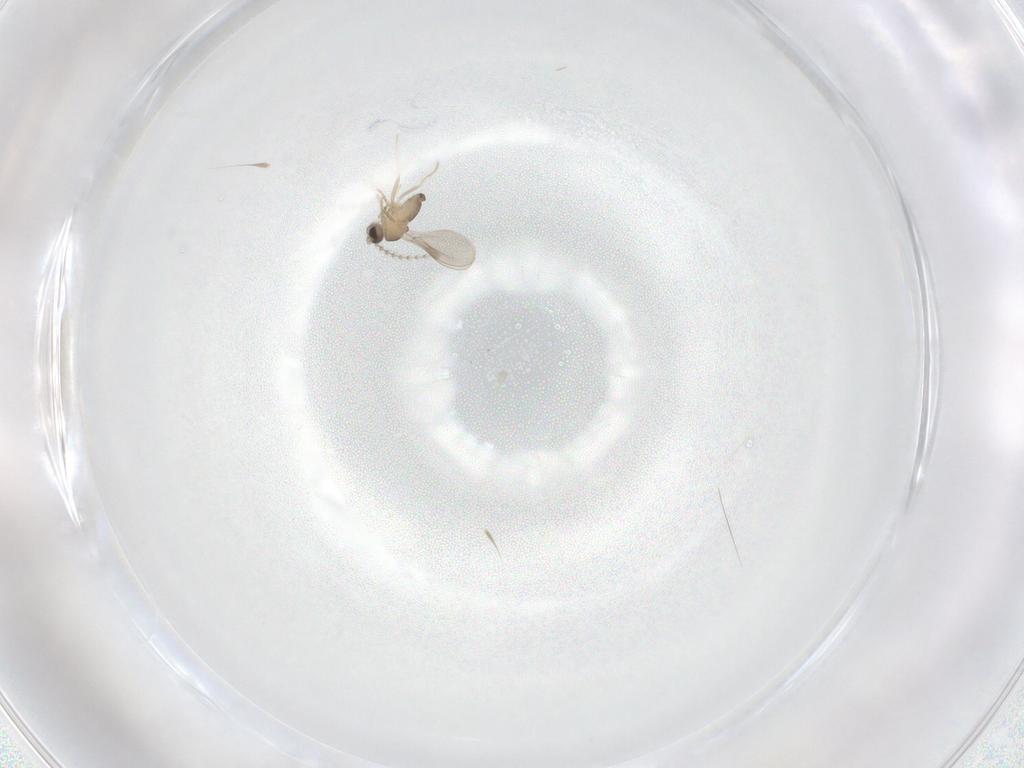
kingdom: Animalia
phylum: Arthropoda
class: Insecta
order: Diptera
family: Cecidomyiidae
